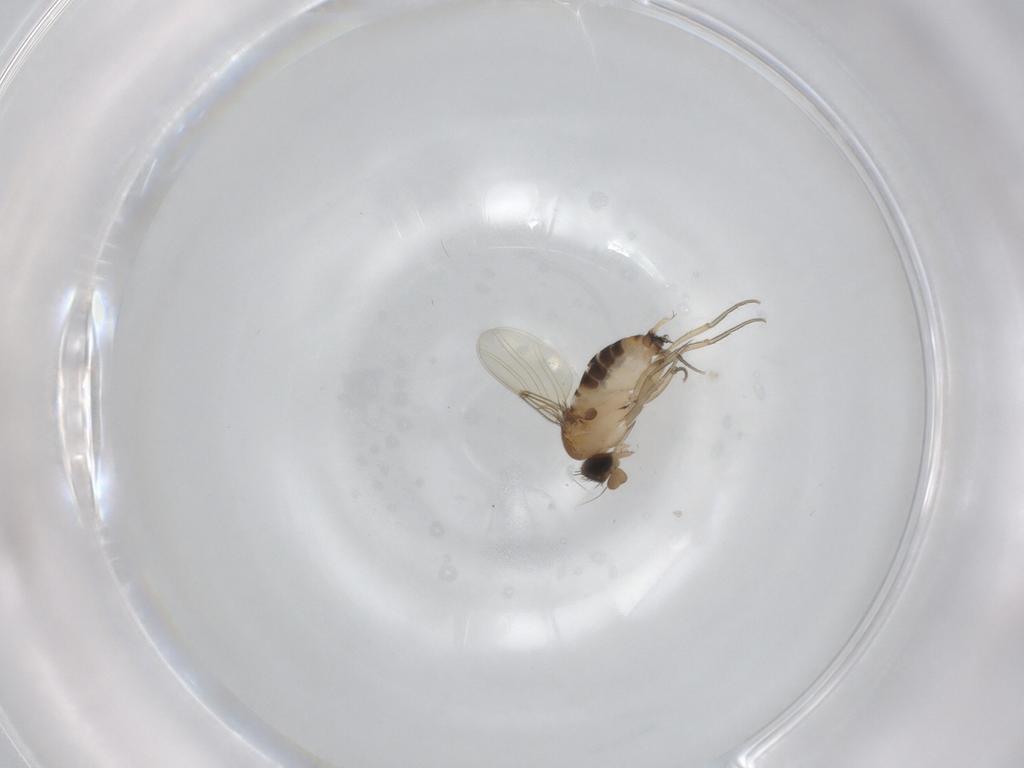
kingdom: Animalia
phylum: Arthropoda
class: Insecta
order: Diptera
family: Phoridae
